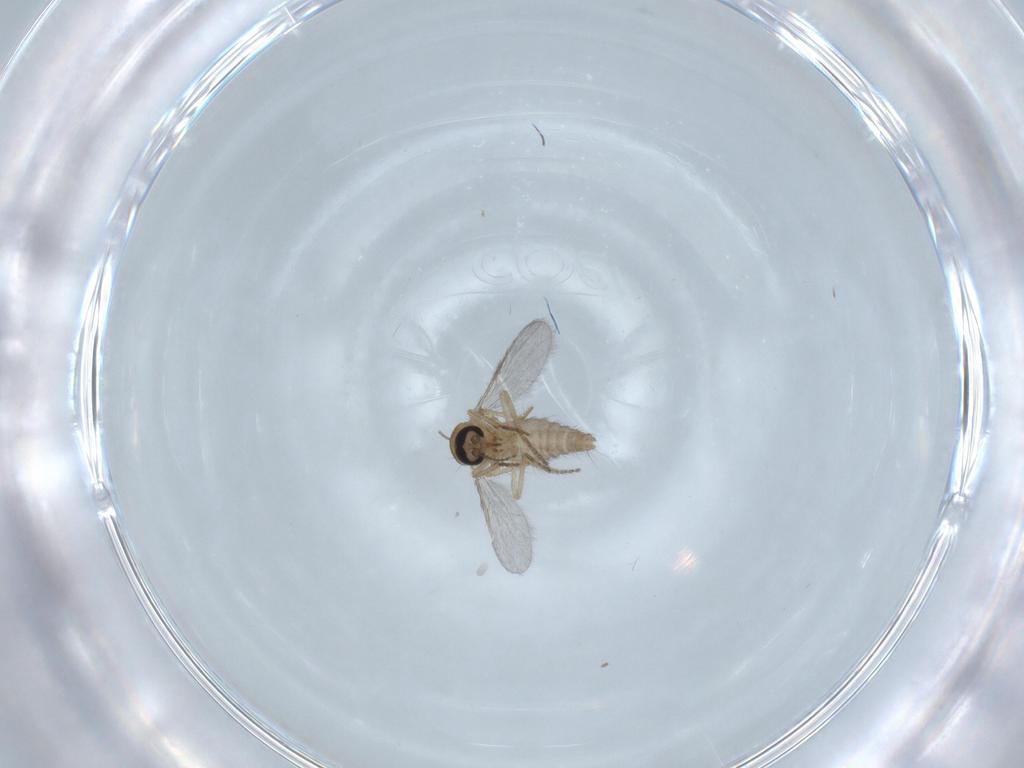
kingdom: Animalia
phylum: Arthropoda
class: Insecta
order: Diptera
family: Ceratopogonidae
